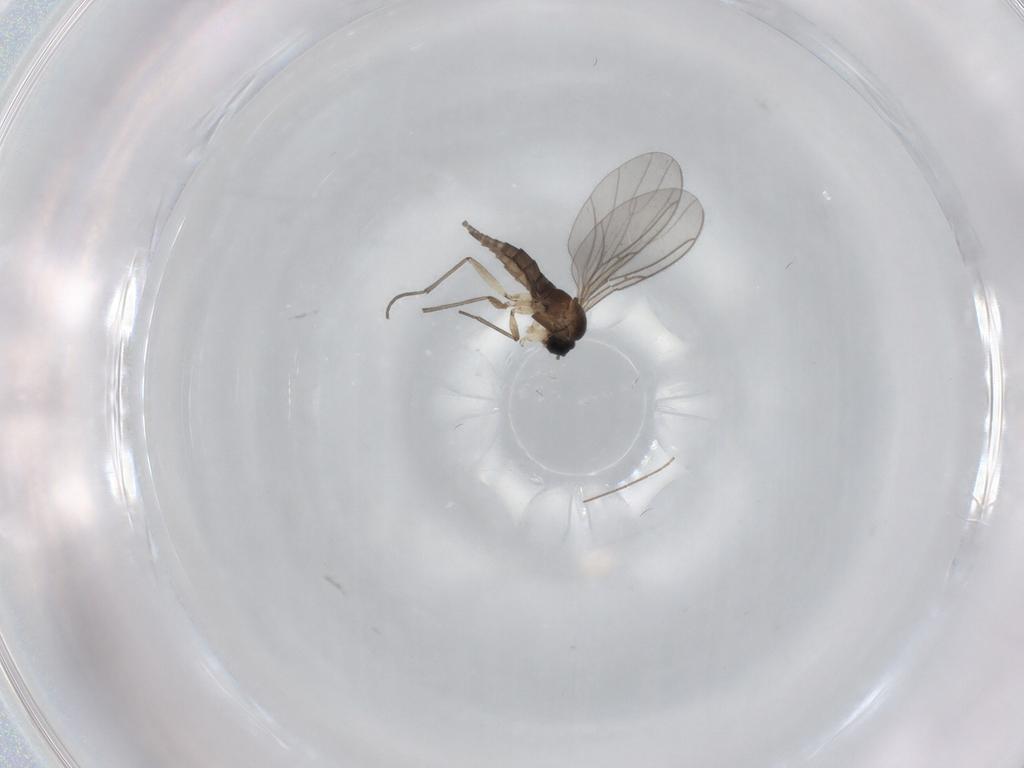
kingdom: Animalia
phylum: Arthropoda
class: Insecta
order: Diptera
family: Sciaridae
